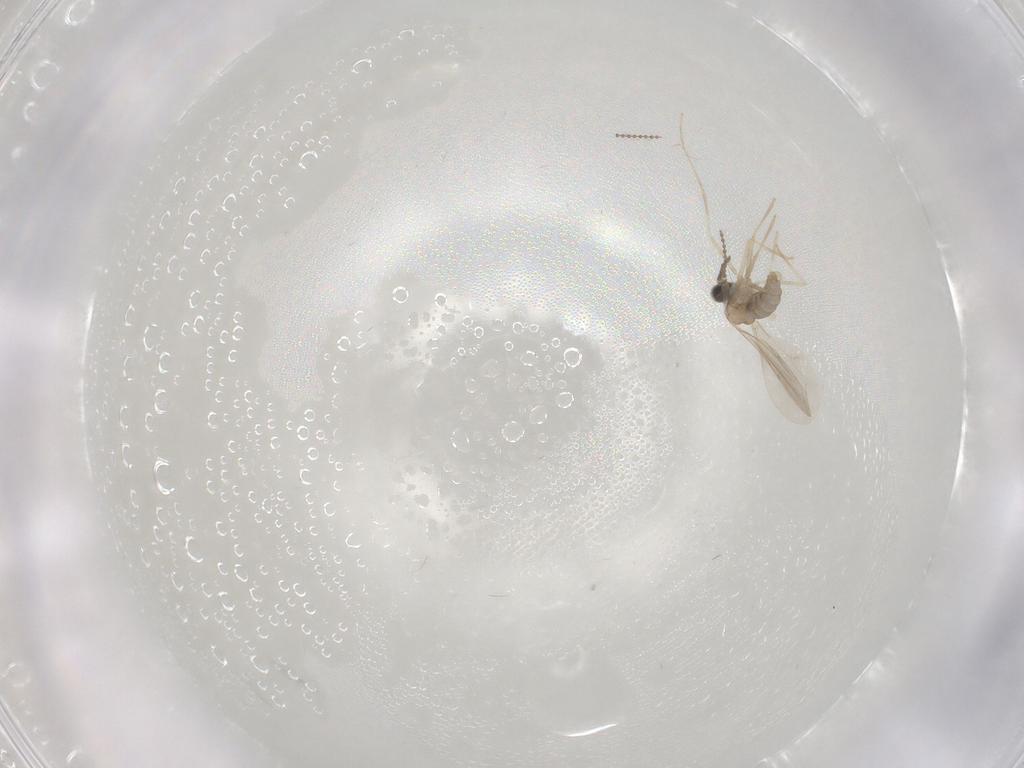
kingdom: Animalia
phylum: Arthropoda
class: Insecta
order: Diptera
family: Cecidomyiidae
